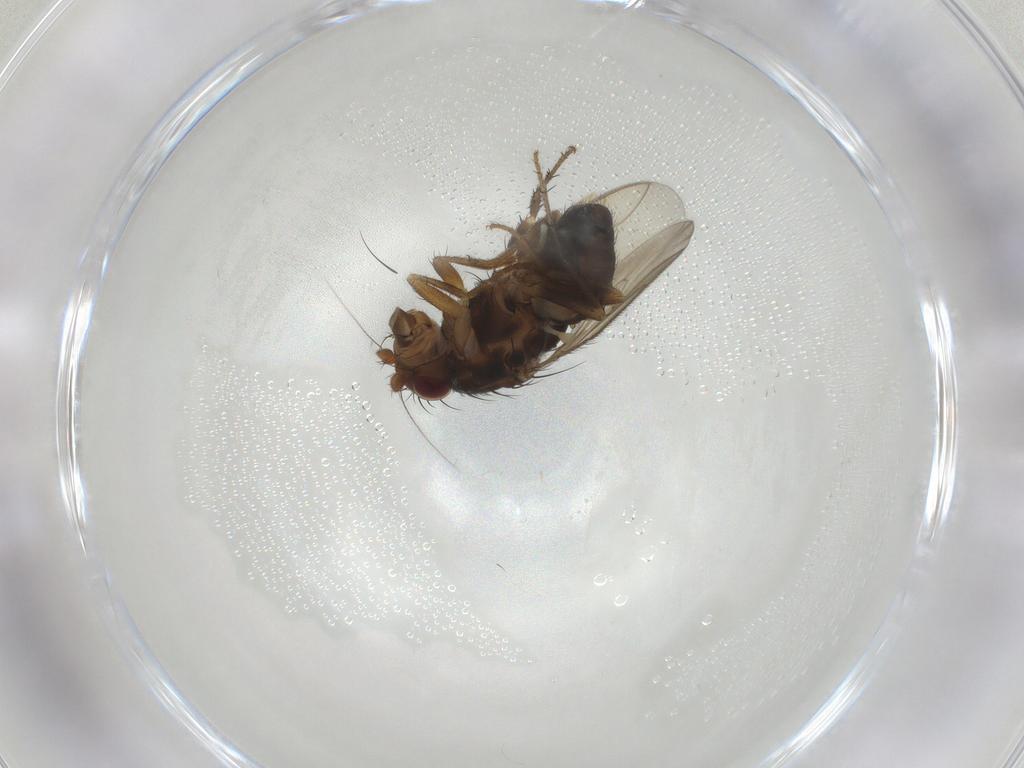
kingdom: Animalia
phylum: Arthropoda
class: Insecta
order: Diptera
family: Sphaeroceridae
